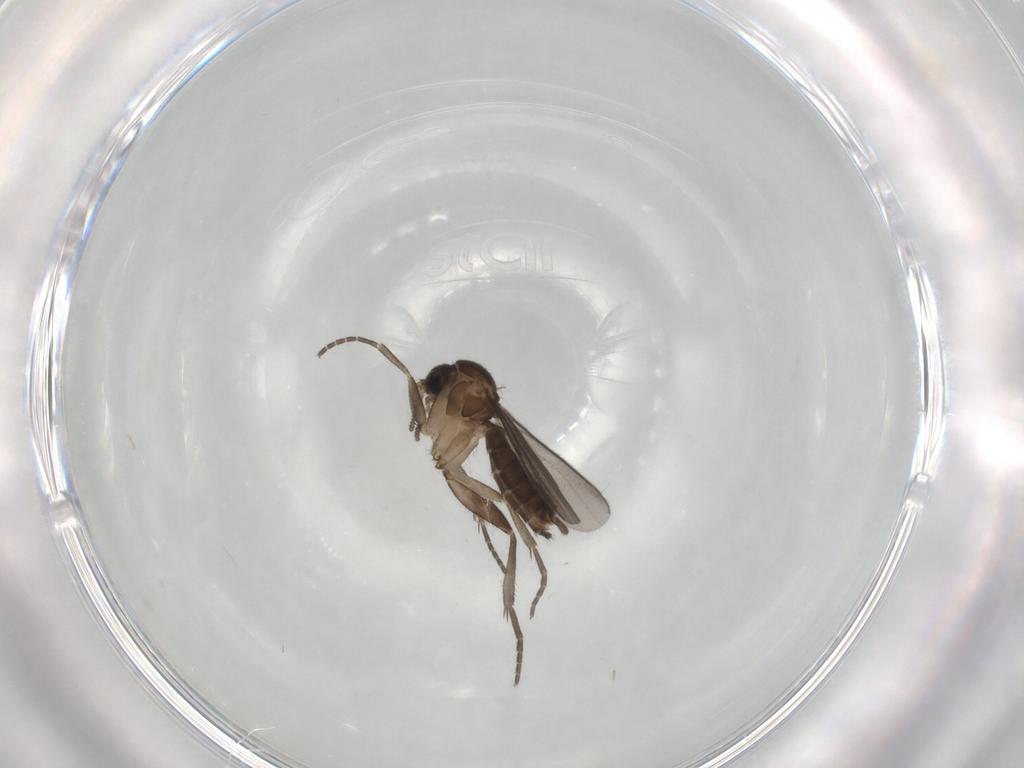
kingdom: Animalia
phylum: Arthropoda
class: Insecta
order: Diptera
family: Mycetophilidae
